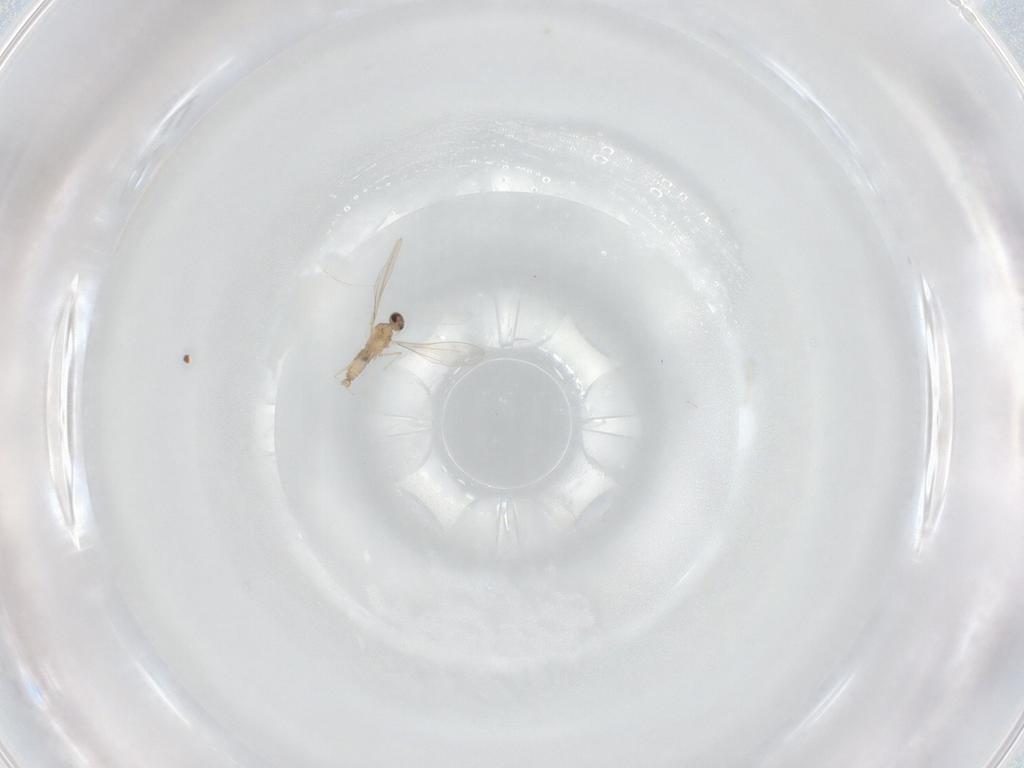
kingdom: Animalia
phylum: Arthropoda
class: Insecta
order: Diptera
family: Cecidomyiidae
